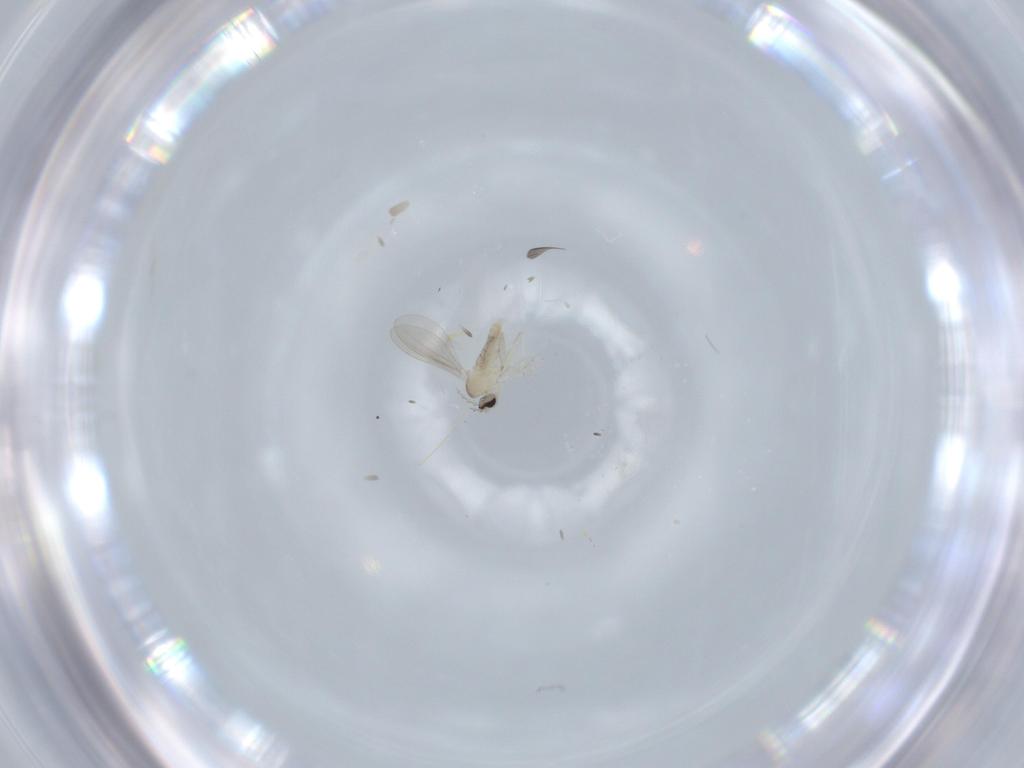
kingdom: Animalia
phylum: Arthropoda
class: Insecta
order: Diptera
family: Cecidomyiidae
